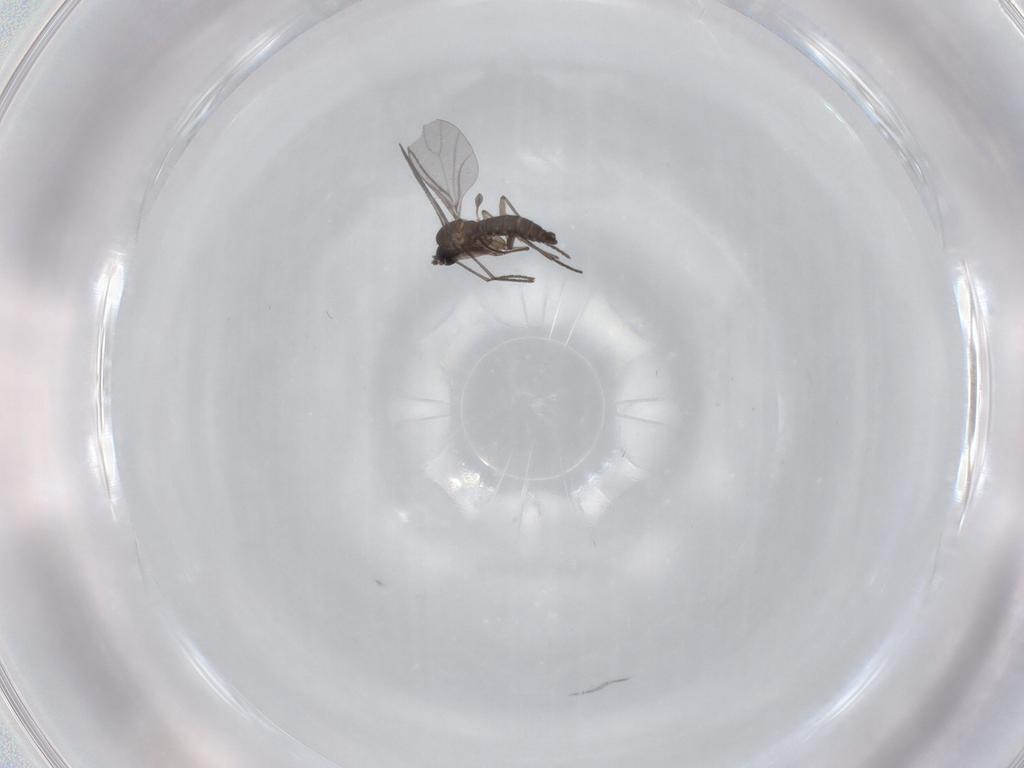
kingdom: Animalia
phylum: Arthropoda
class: Insecta
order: Diptera
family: Sciaridae
